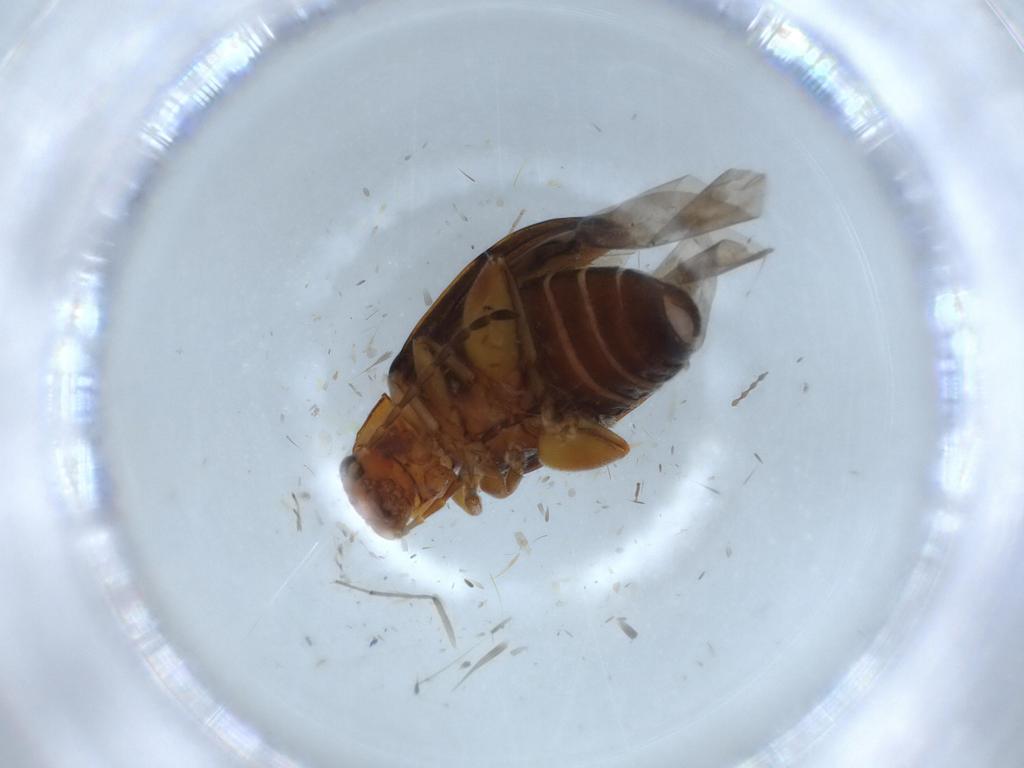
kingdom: Animalia
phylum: Arthropoda
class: Insecta
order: Coleoptera
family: Chrysomelidae
